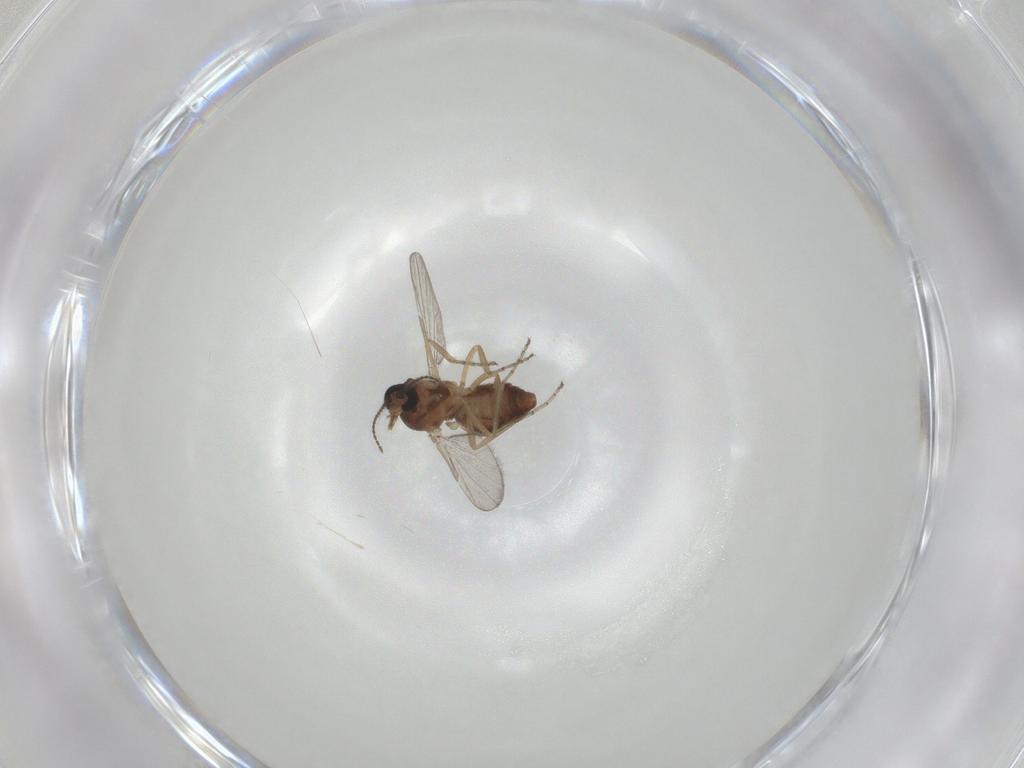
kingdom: Animalia
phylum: Arthropoda
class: Insecta
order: Diptera
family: Ceratopogonidae
